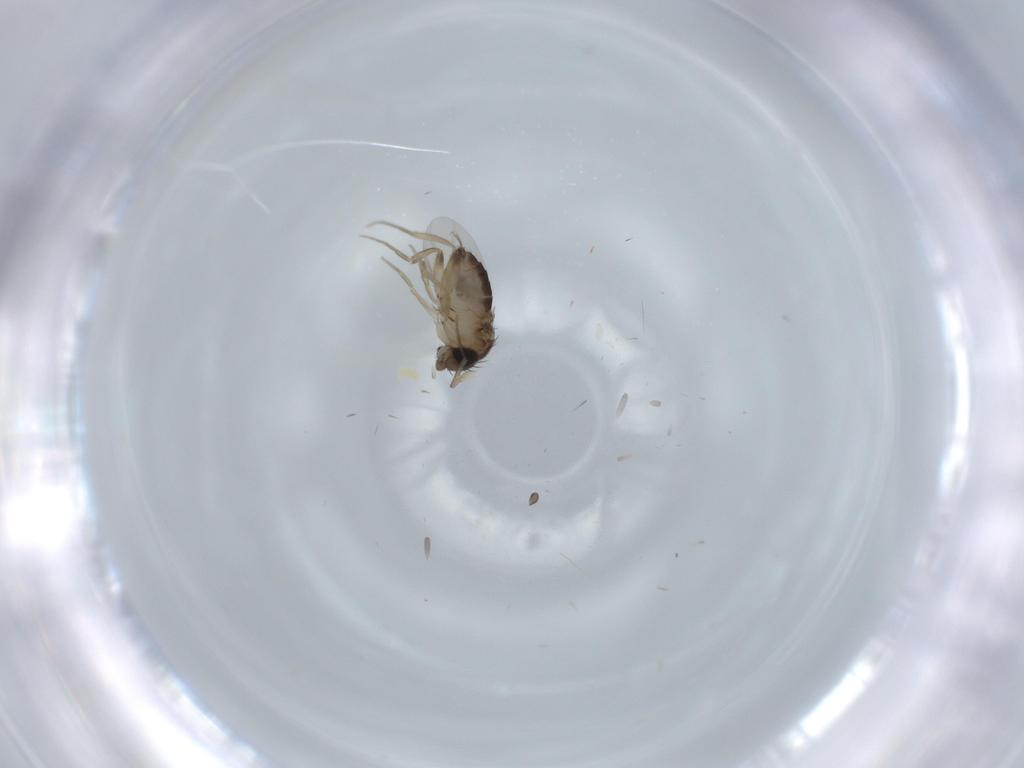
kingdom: Animalia
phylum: Arthropoda
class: Insecta
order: Diptera
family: Phoridae
